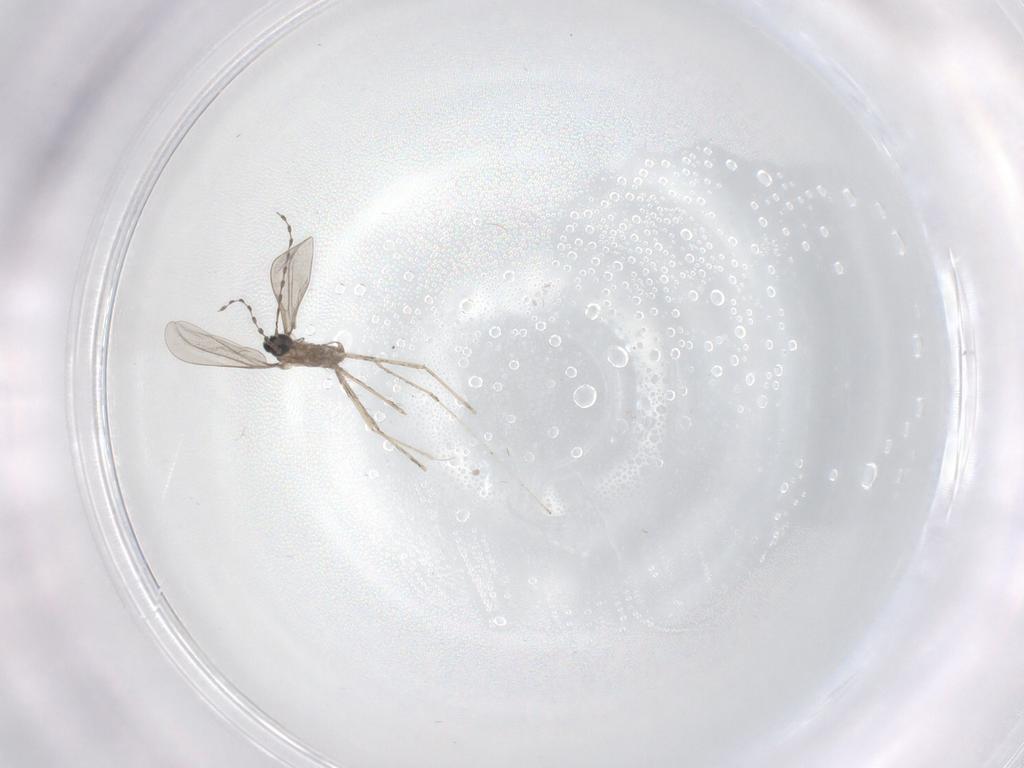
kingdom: Animalia
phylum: Arthropoda
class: Insecta
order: Diptera
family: Cecidomyiidae
